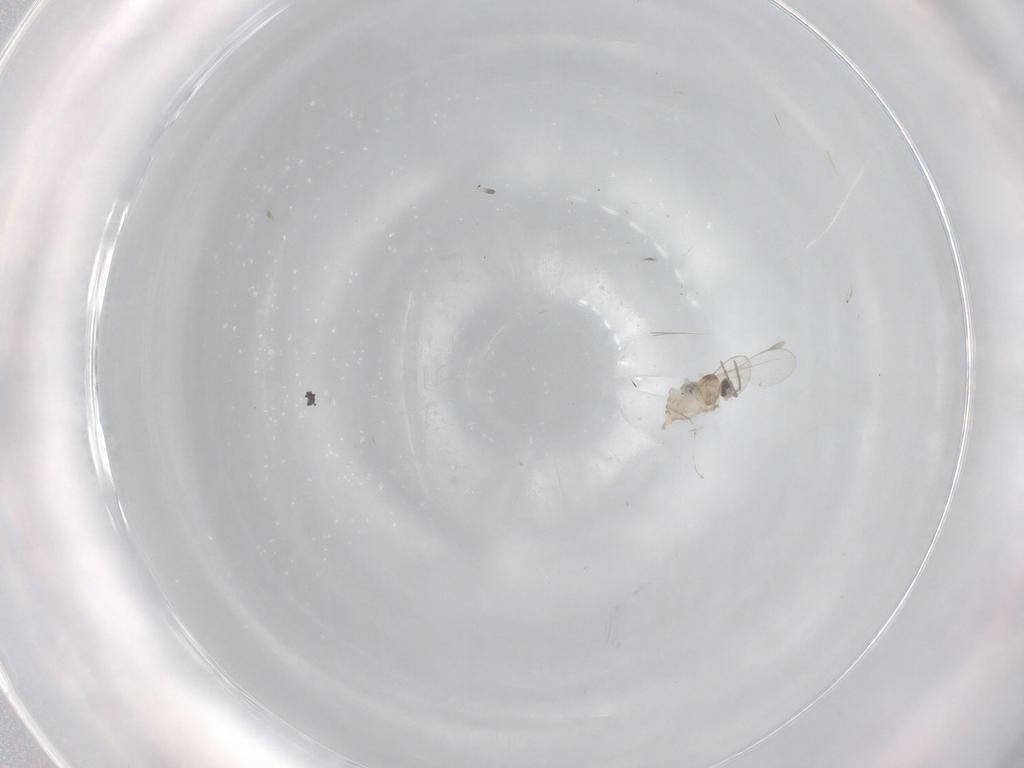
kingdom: Animalia
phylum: Arthropoda
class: Insecta
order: Diptera
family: Cecidomyiidae
